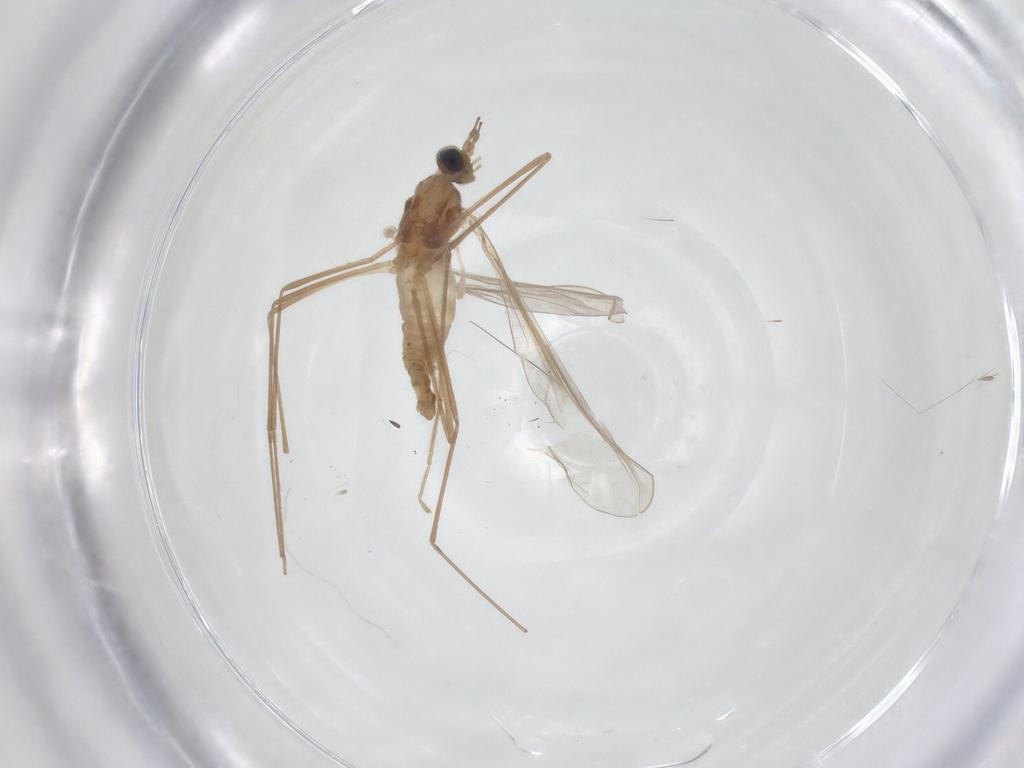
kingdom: Animalia
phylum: Arthropoda
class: Insecta
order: Diptera
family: Cecidomyiidae
